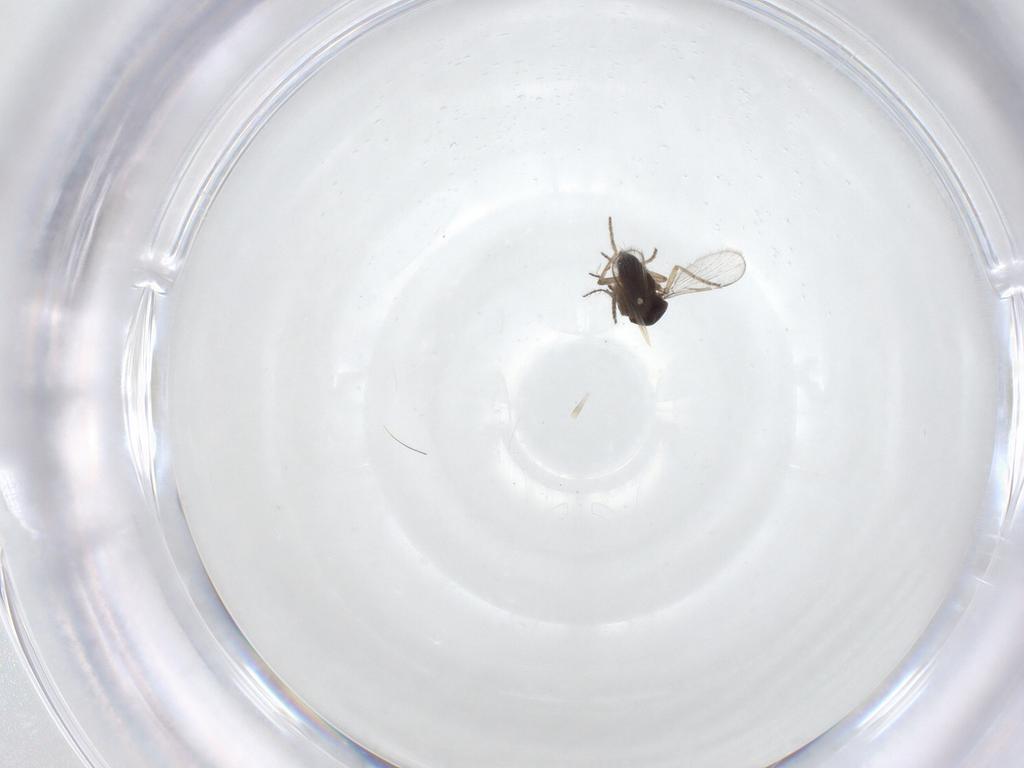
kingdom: Animalia
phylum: Arthropoda
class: Insecta
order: Diptera
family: Ceratopogonidae
